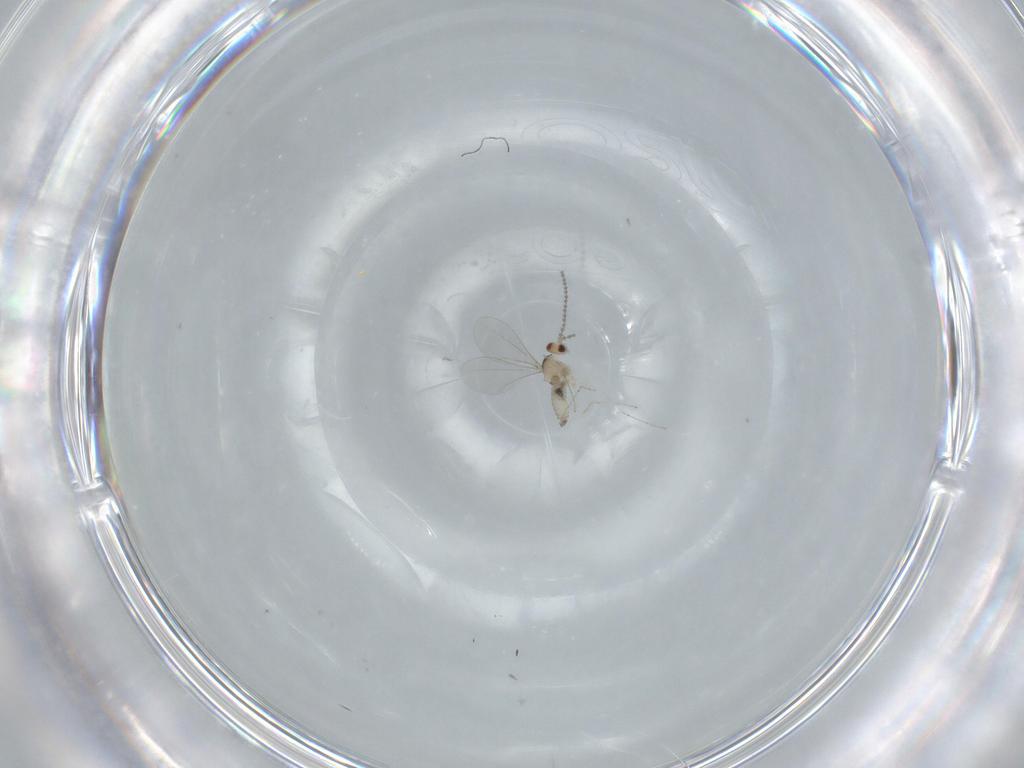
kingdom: Animalia
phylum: Arthropoda
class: Insecta
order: Diptera
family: Cecidomyiidae
